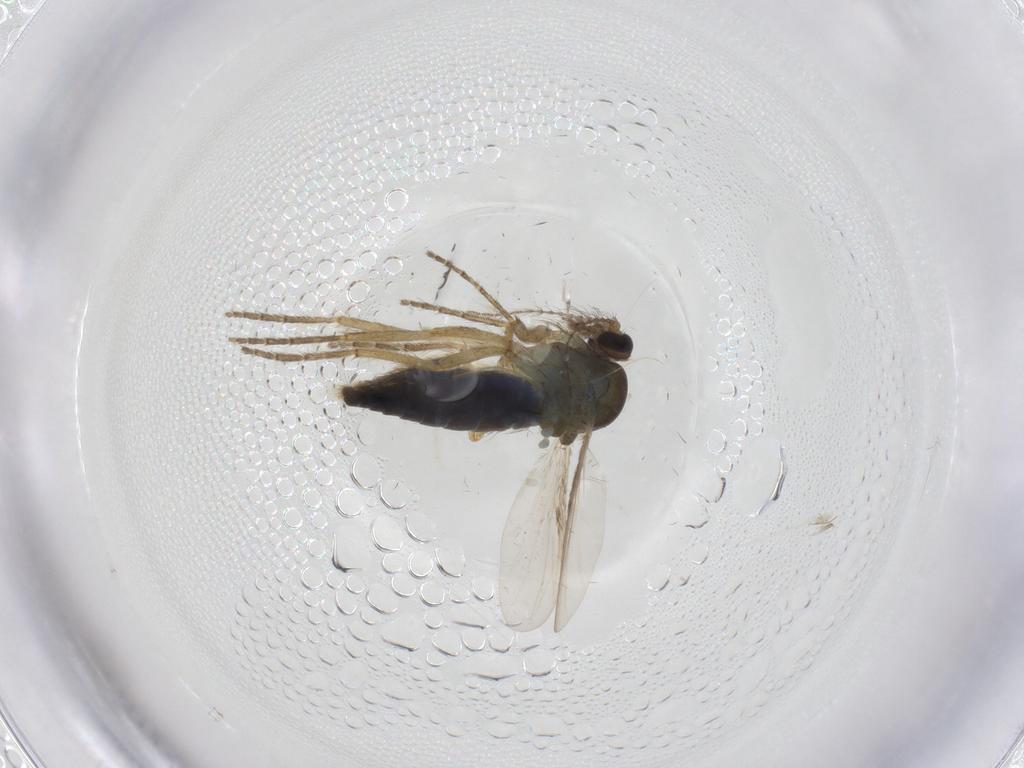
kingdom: Animalia
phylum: Arthropoda
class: Insecta
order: Diptera
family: Ceratopogonidae
